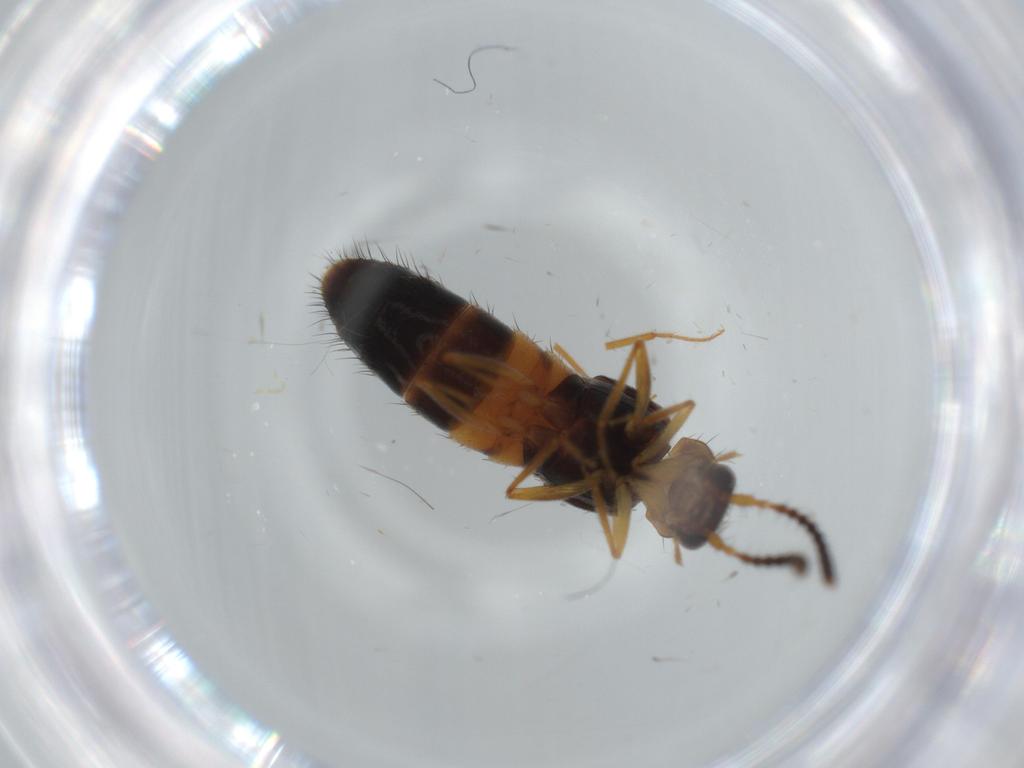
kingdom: Animalia
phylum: Arthropoda
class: Insecta
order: Coleoptera
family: Staphylinidae
